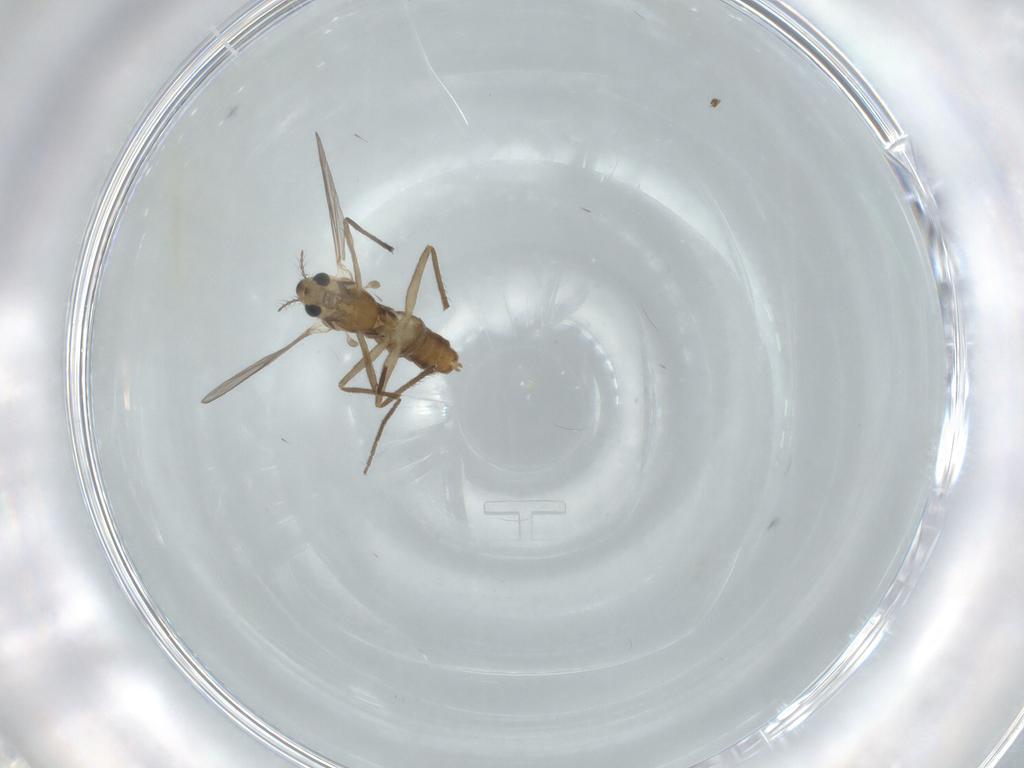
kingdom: Animalia
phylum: Arthropoda
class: Insecta
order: Diptera
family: Chironomidae
